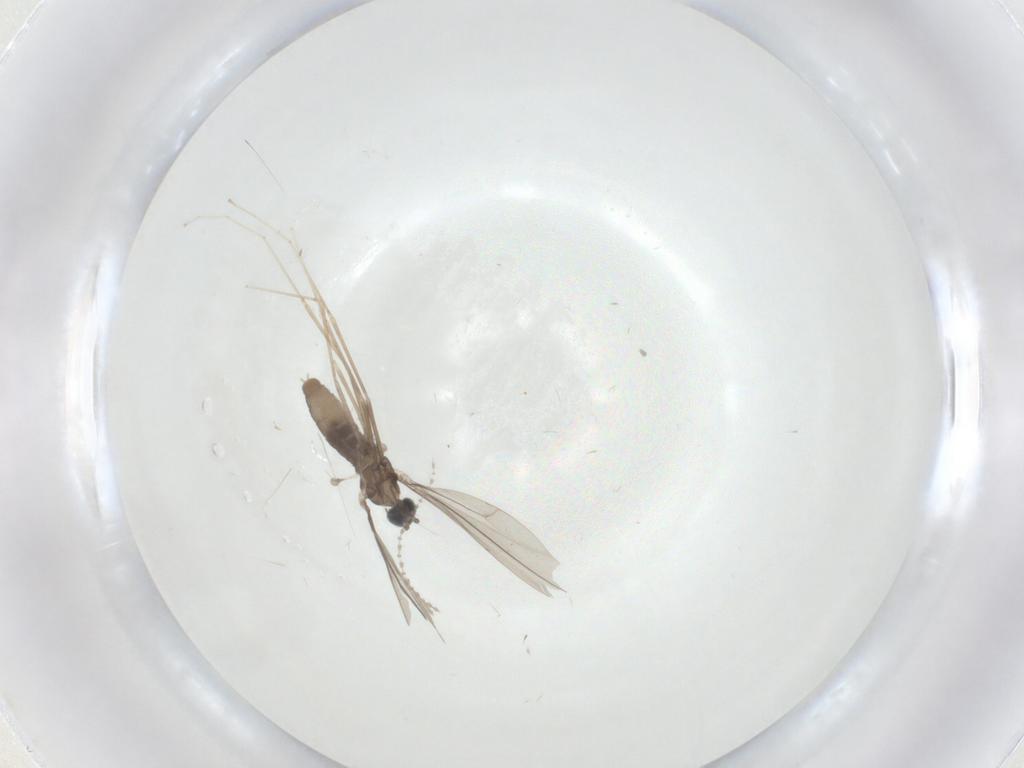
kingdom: Animalia
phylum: Arthropoda
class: Insecta
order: Diptera
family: Cecidomyiidae
